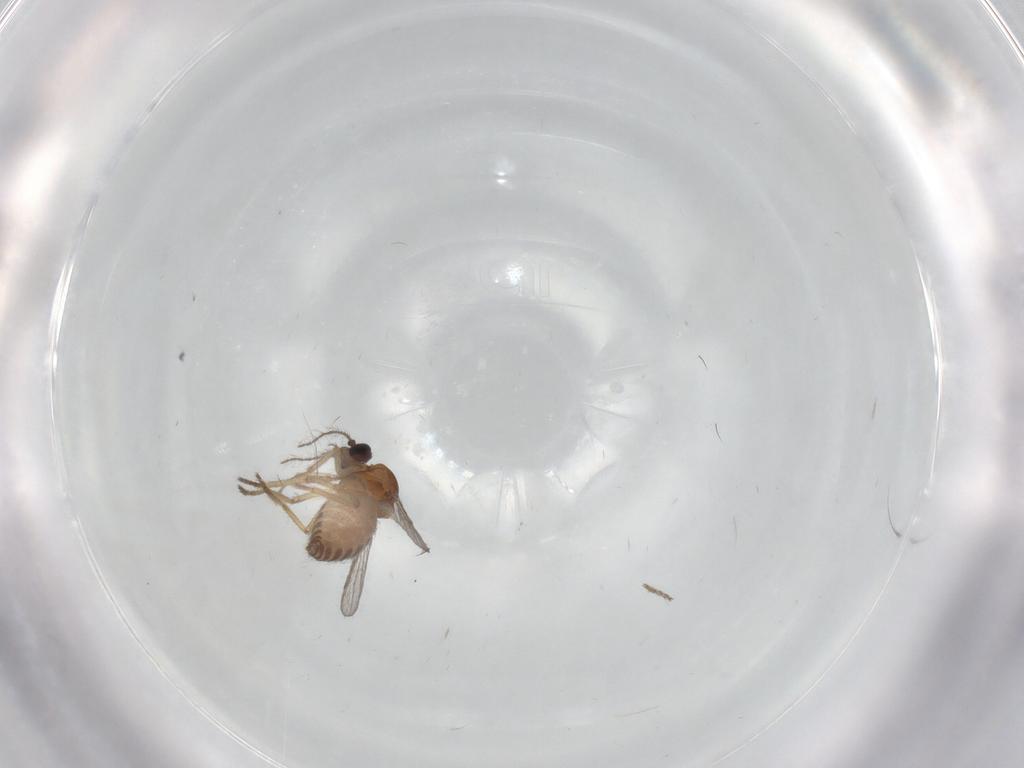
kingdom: Animalia
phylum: Arthropoda
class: Insecta
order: Diptera
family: Ceratopogonidae
